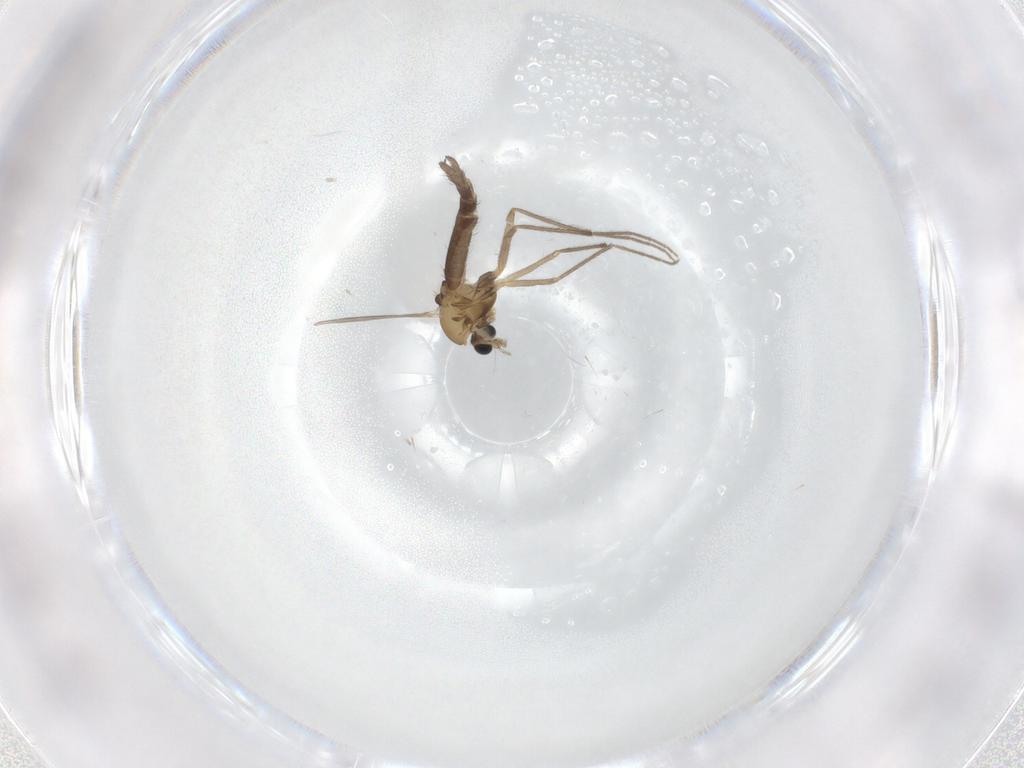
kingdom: Animalia
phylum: Arthropoda
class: Insecta
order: Diptera
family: Chironomidae
